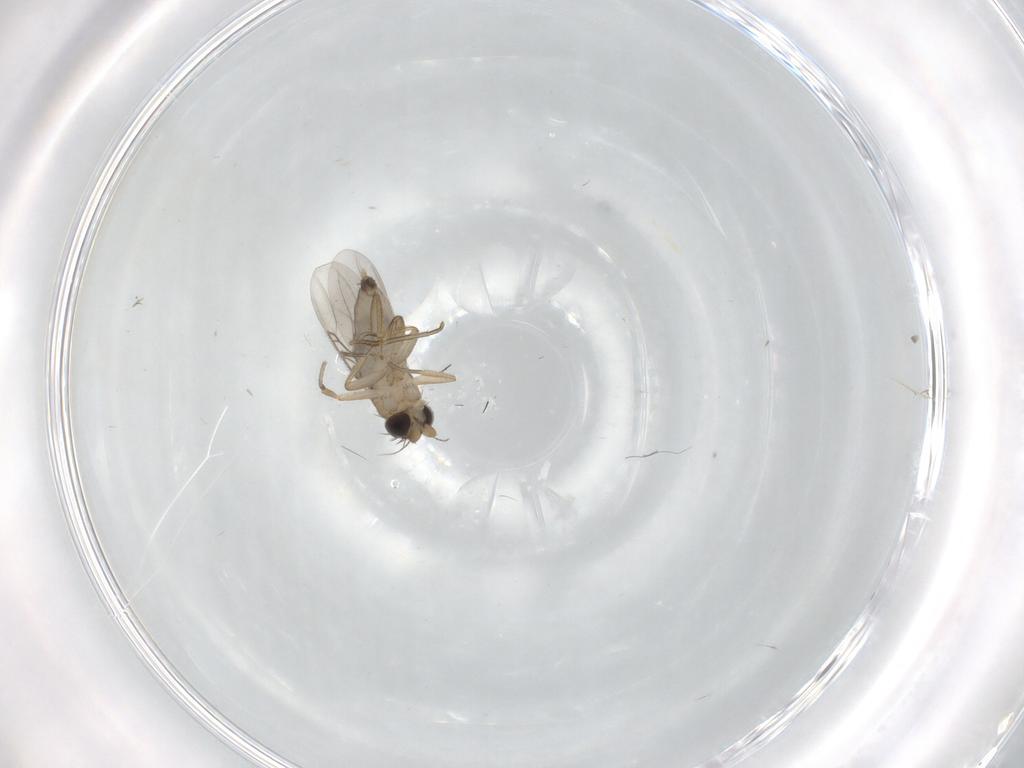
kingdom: Animalia
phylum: Arthropoda
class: Insecta
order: Diptera
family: Phoridae
